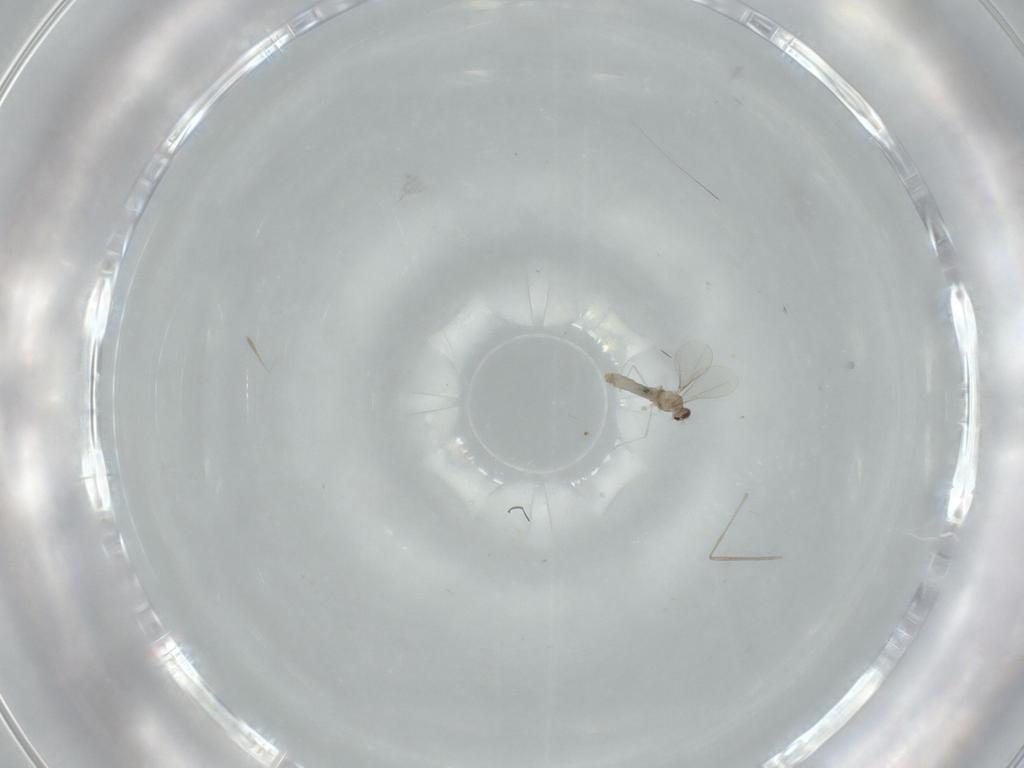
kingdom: Animalia
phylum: Arthropoda
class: Insecta
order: Diptera
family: Cecidomyiidae
